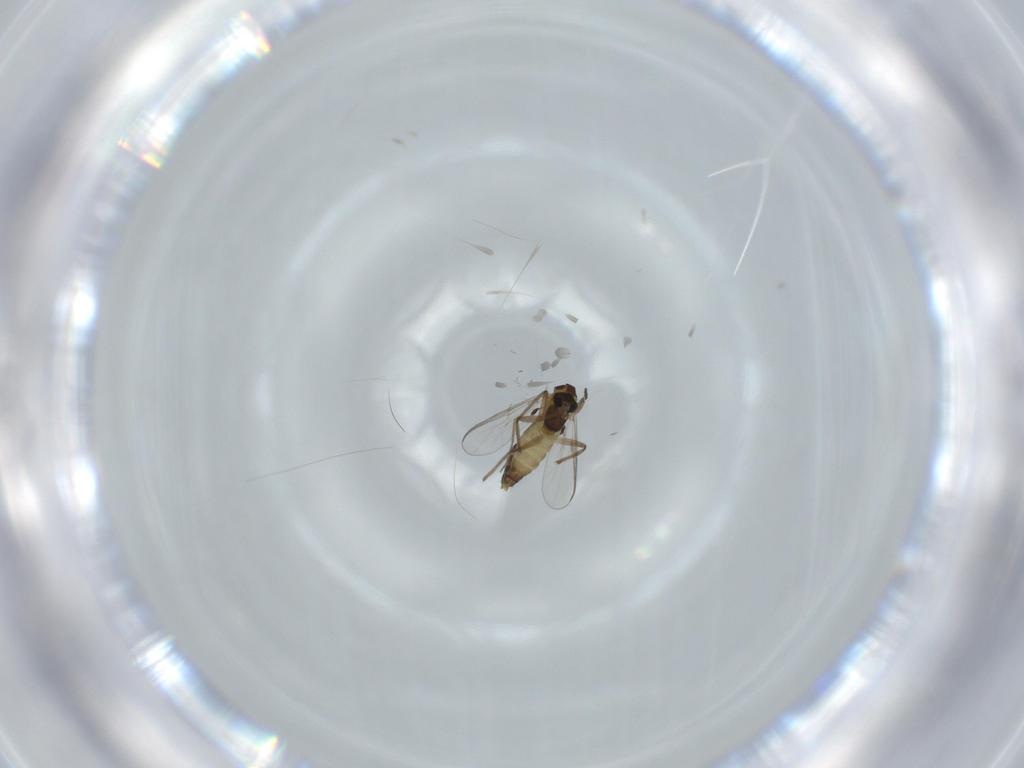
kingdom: Animalia
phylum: Arthropoda
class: Insecta
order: Diptera
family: Chironomidae
